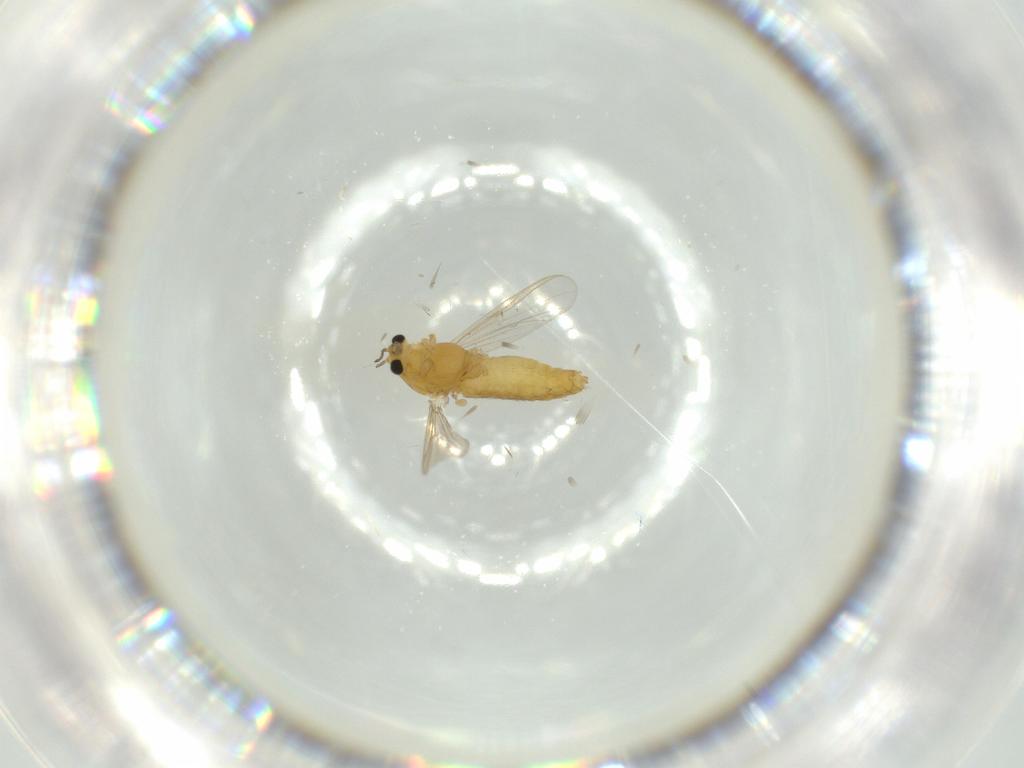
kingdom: Animalia
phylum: Arthropoda
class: Insecta
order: Diptera
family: Chironomidae
